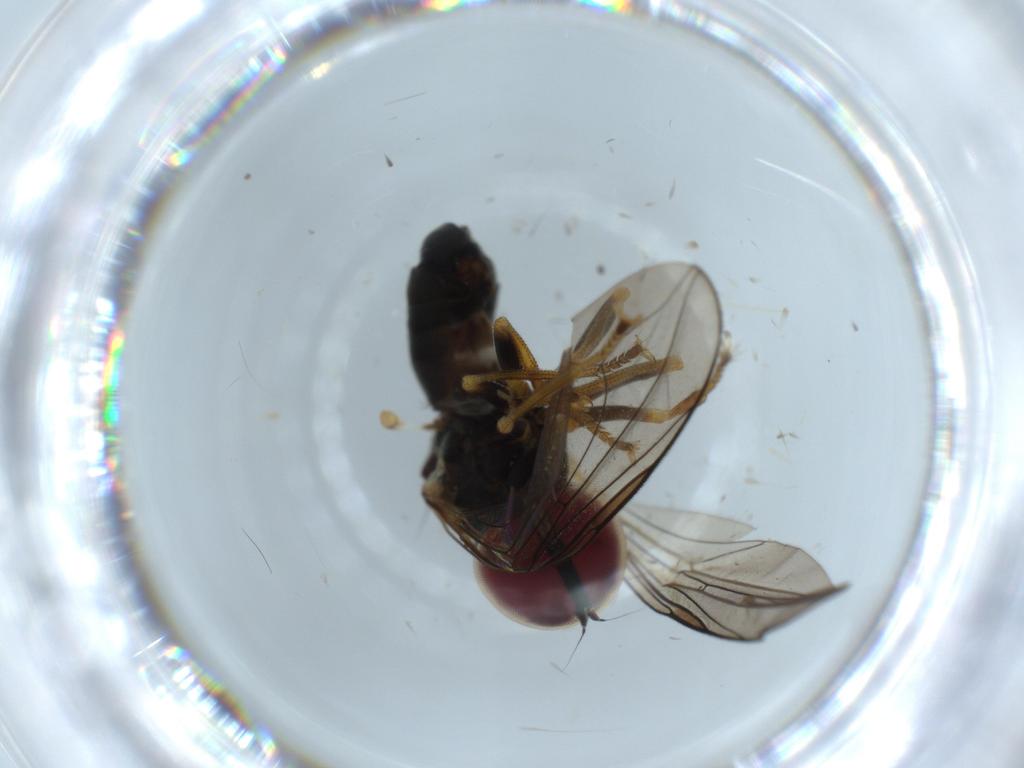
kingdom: Animalia
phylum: Arthropoda
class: Insecta
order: Diptera
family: Pipunculidae
